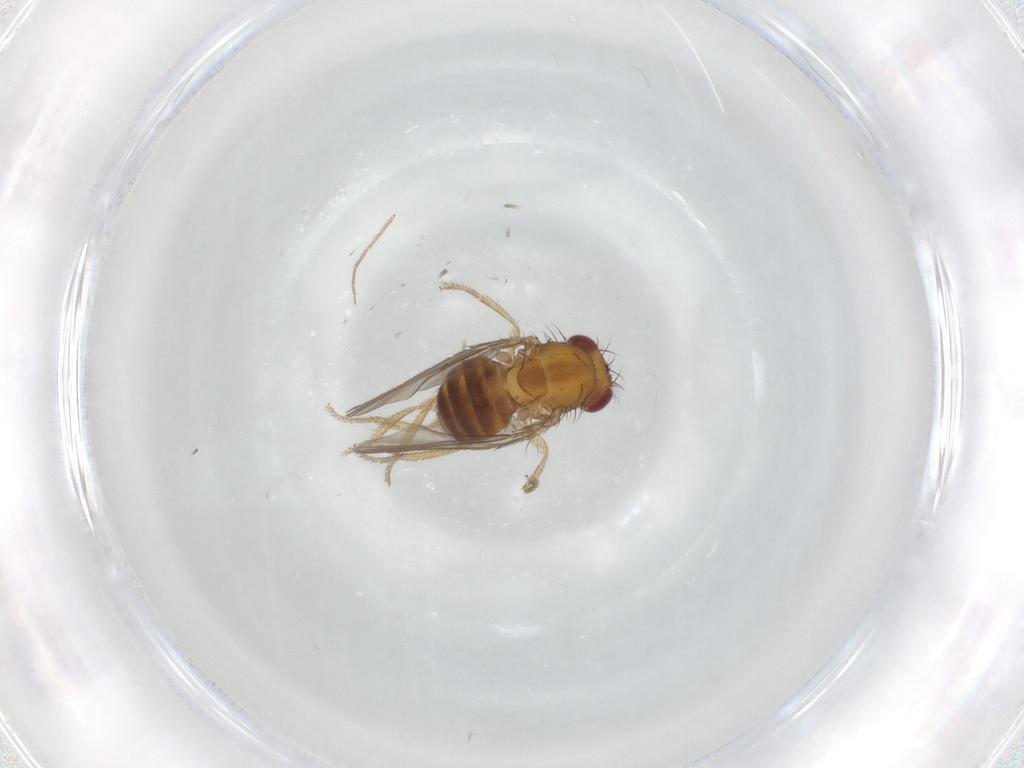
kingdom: Animalia
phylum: Arthropoda
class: Insecta
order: Diptera
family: Drosophilidae
